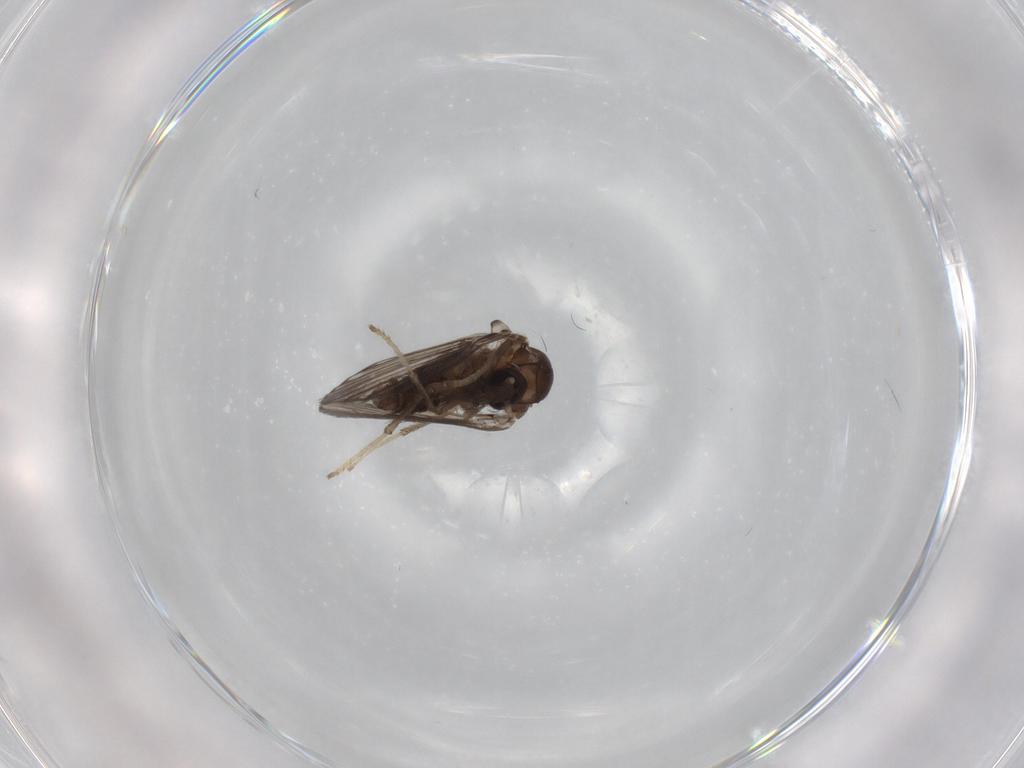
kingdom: Animalia
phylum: Arthropoda
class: Insecta
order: Diptera
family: Psychodidae
